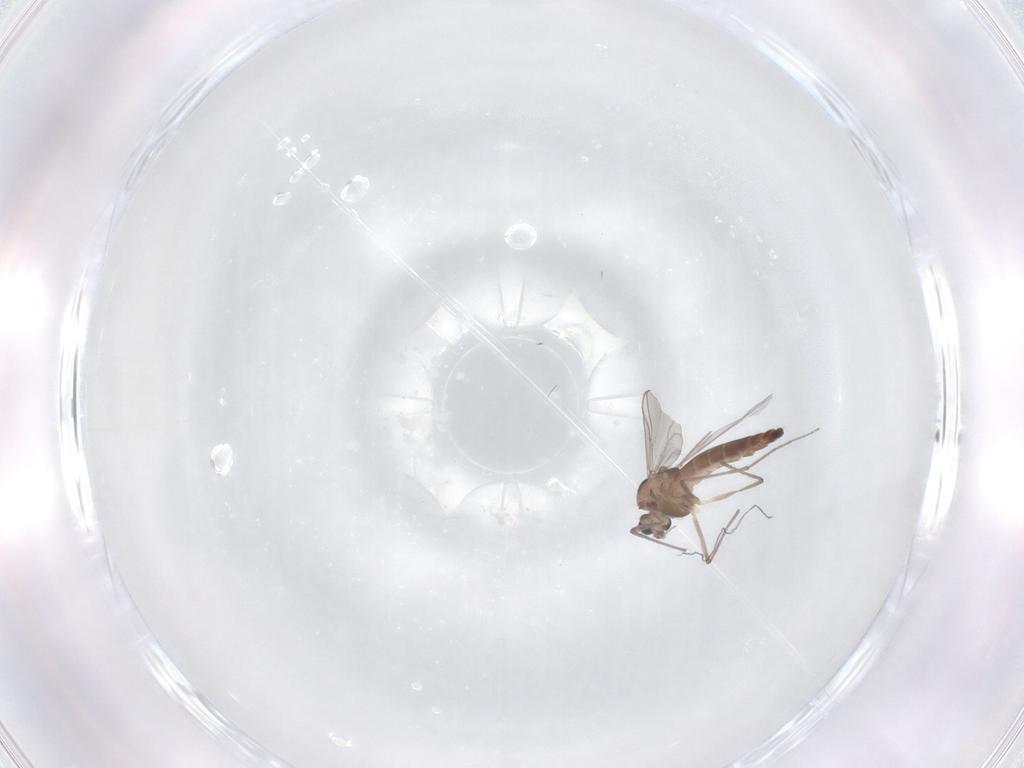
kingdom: Animalia
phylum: Arthropoda
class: Insecta
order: Diptera
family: Chironomidae
